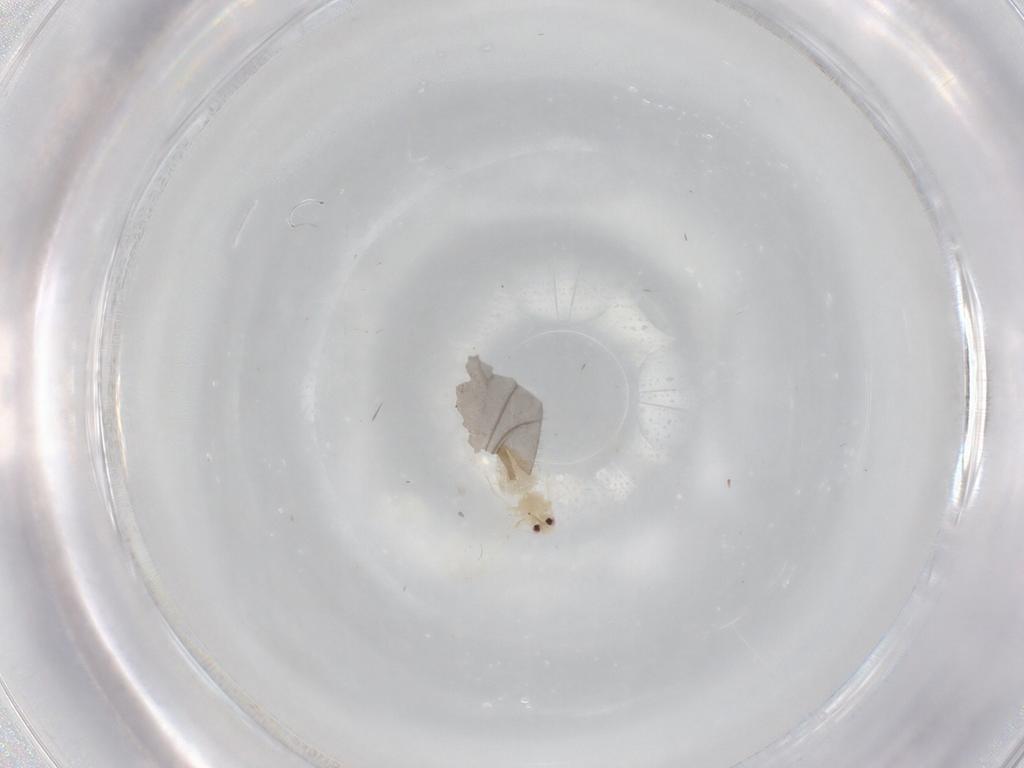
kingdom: Animalia
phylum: Arthropoda
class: Insecta
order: Hemiptera
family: Aleyrodidae
